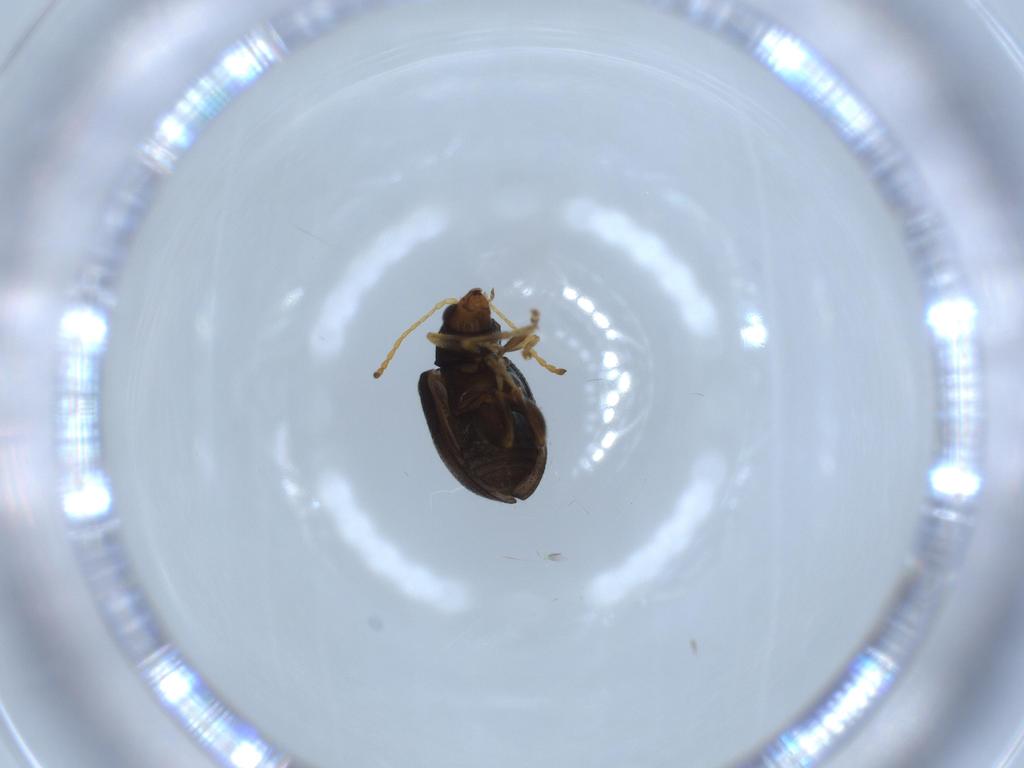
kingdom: Animalia
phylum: Arthropoda
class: Insecta
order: Coleoptera
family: Chrysomelidae
